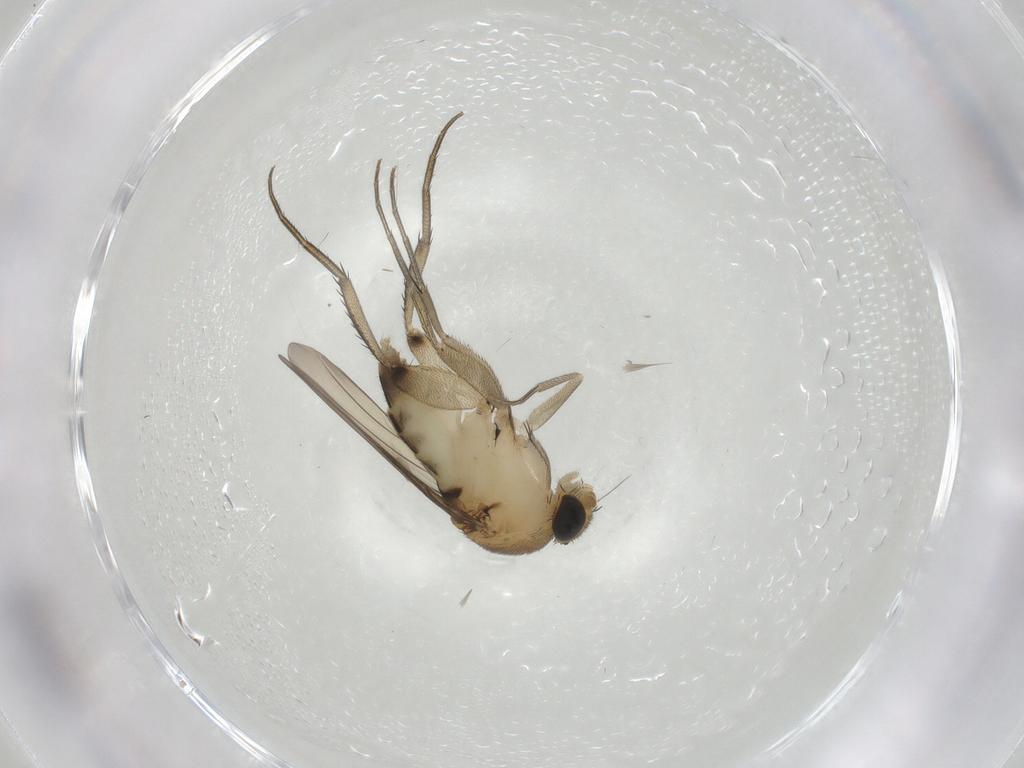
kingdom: Animalia
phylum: Arthropoda
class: Insecta
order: Diptera
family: Phoridae
